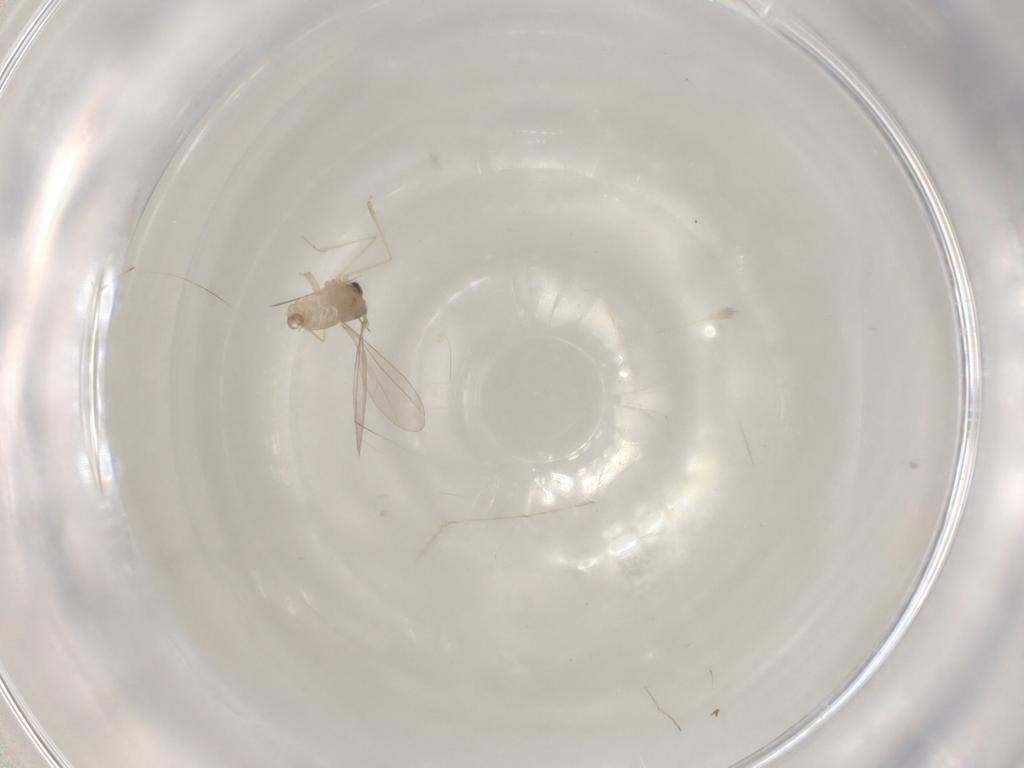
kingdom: Animalia
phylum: Arthropoda
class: Insecta
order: Diptera
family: Cecidomyiidae
